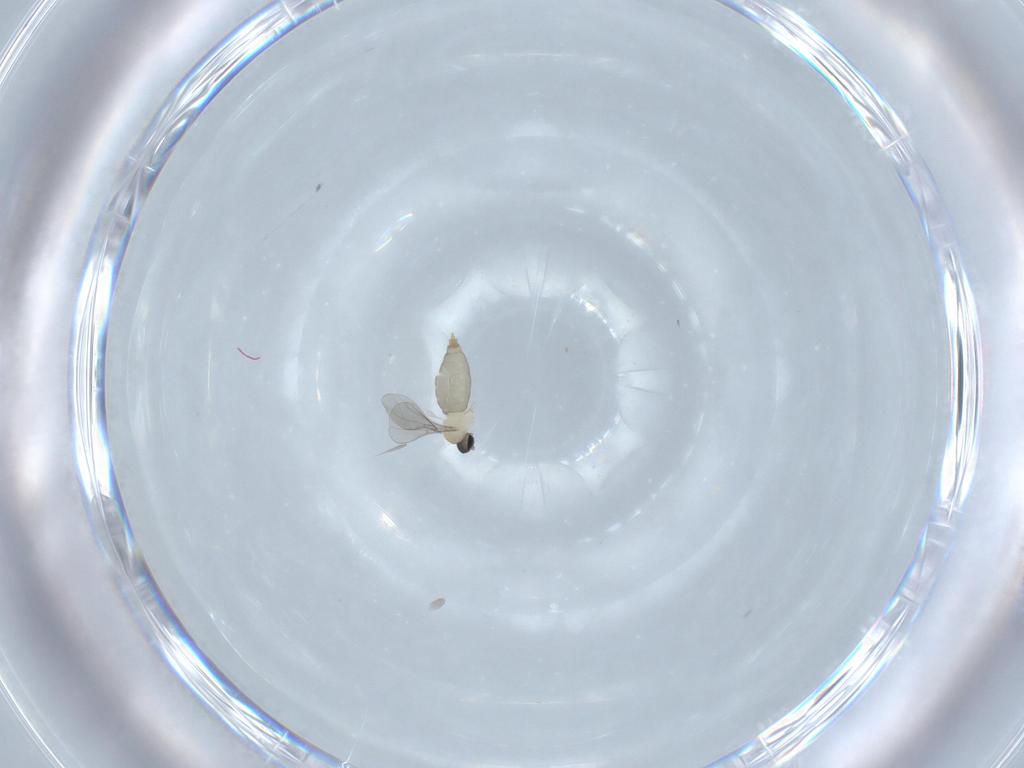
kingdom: Animalia
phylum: Arthropoda
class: Insecta
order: Diptera
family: Cecidomyiidae
